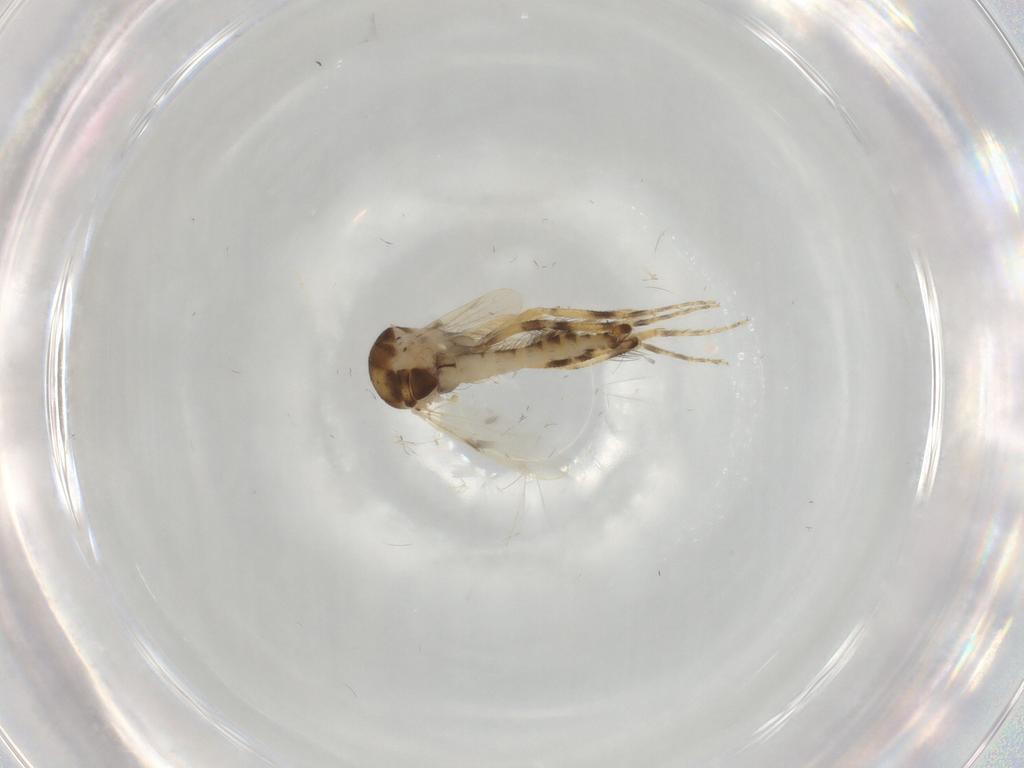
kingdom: Animalia
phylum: Arthropoda
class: Insecta
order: Diptera
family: Ceratopogonidae
